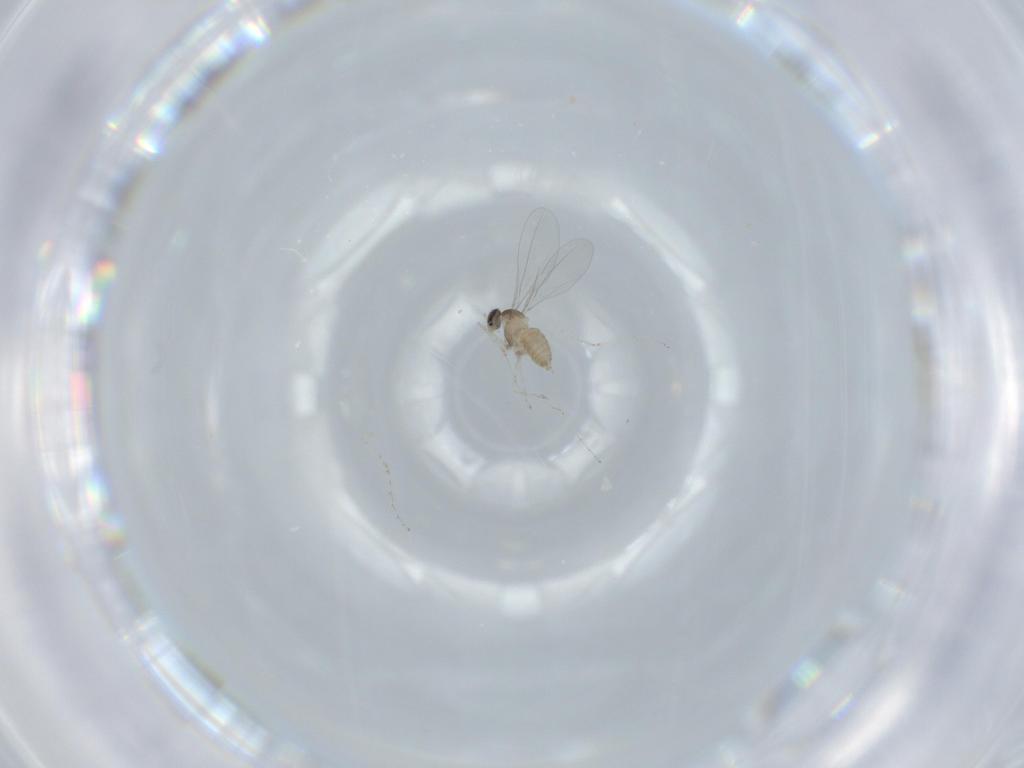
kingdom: Animalia
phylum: Arthropoda
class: Insecta
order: Diptera
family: Cecidomyiidae
